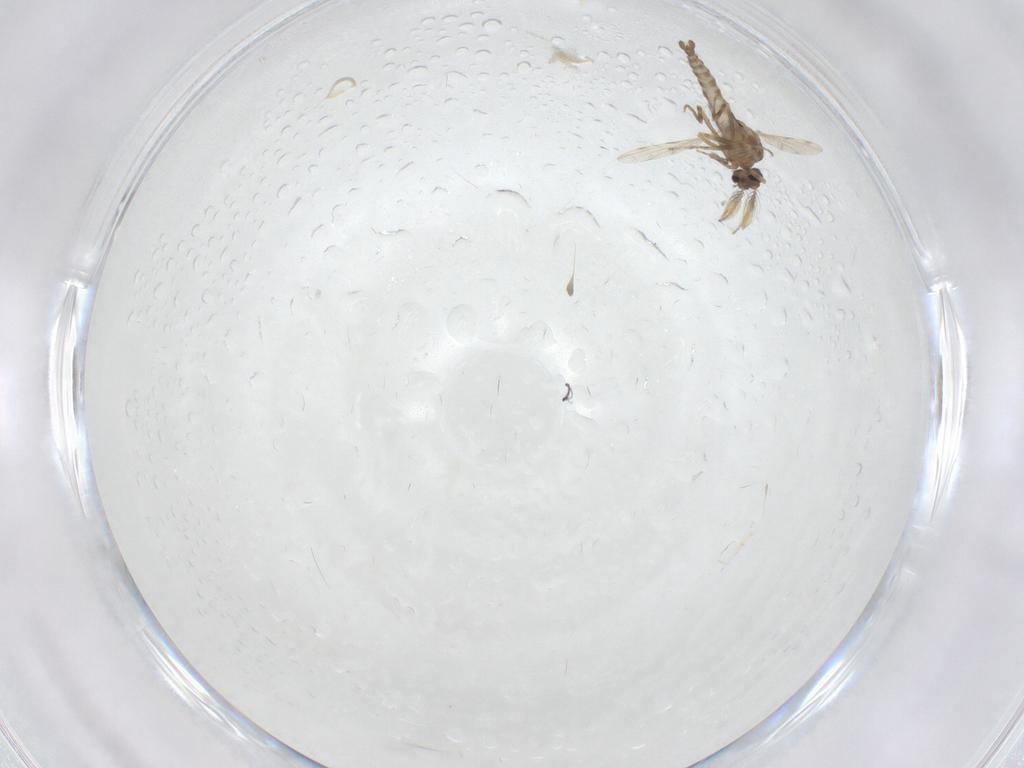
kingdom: Animalia
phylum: Arthropoda
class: Insecta
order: Diptera
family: Ceratopogonidae
